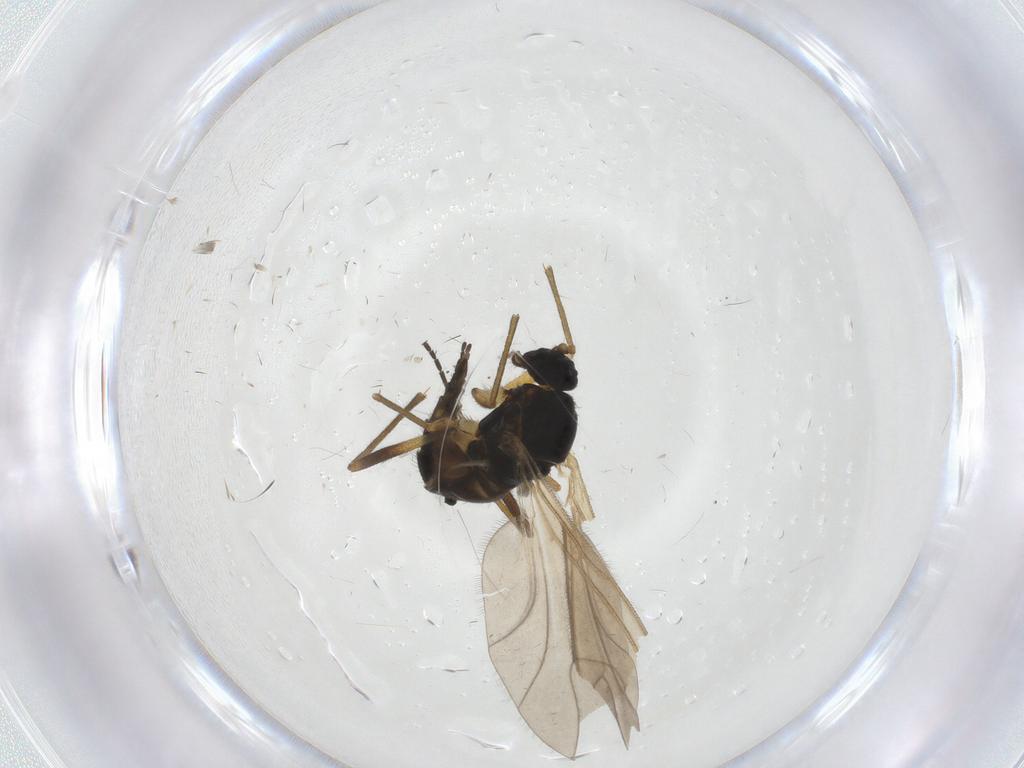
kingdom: Animalia
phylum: Arthropoda
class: Insecta
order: Diptera
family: Sciaridae
